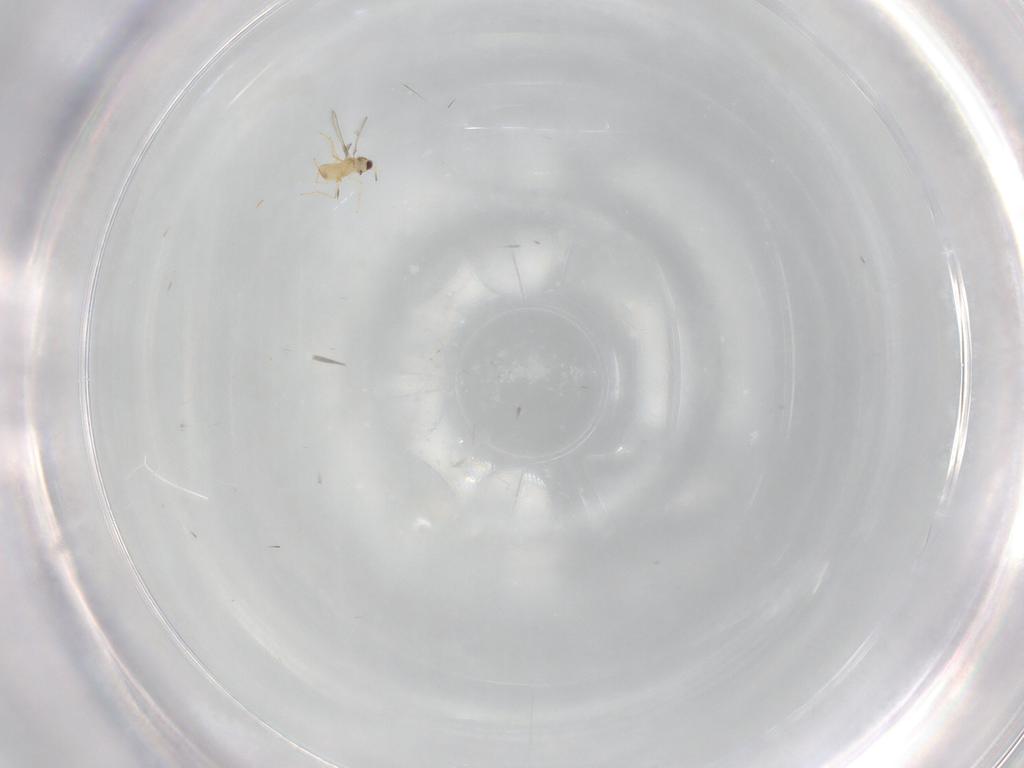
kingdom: Animalia
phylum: Arthropoda
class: Insecta
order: Hymenoptera
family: Mymaridae
